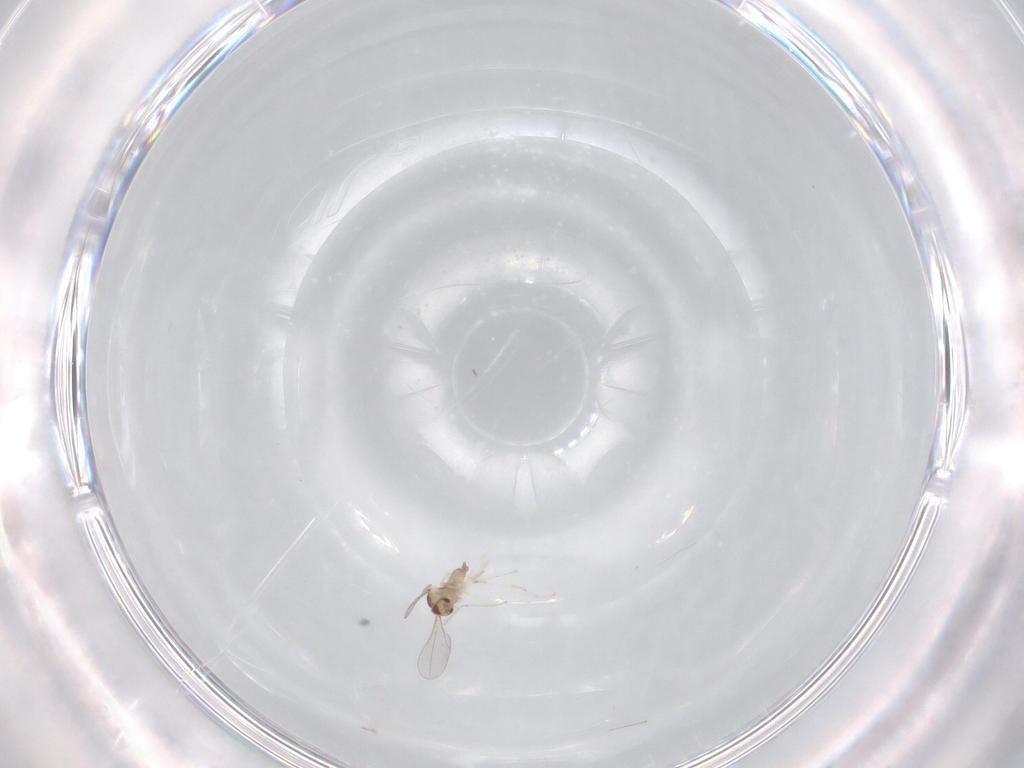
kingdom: Animalia
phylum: Arthropoda
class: Insecta
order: Diptera
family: Cecidomyiidae
